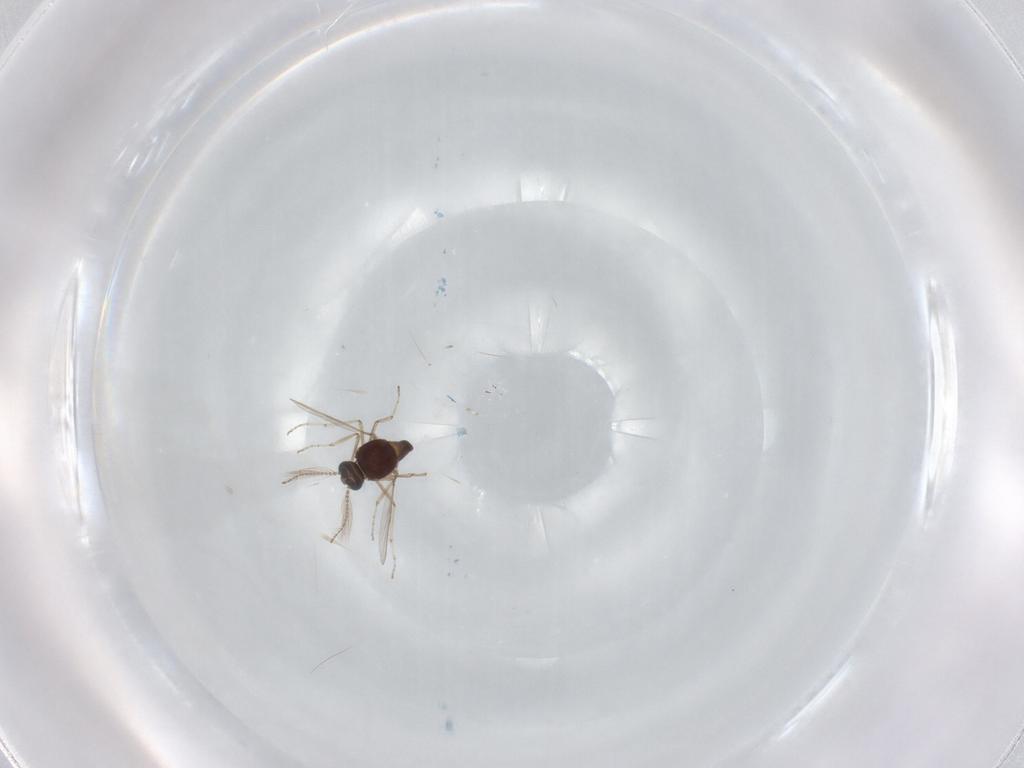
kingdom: Animalia
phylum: Arthropoda
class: Insecta
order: Diptera
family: Ceratopogonidae
